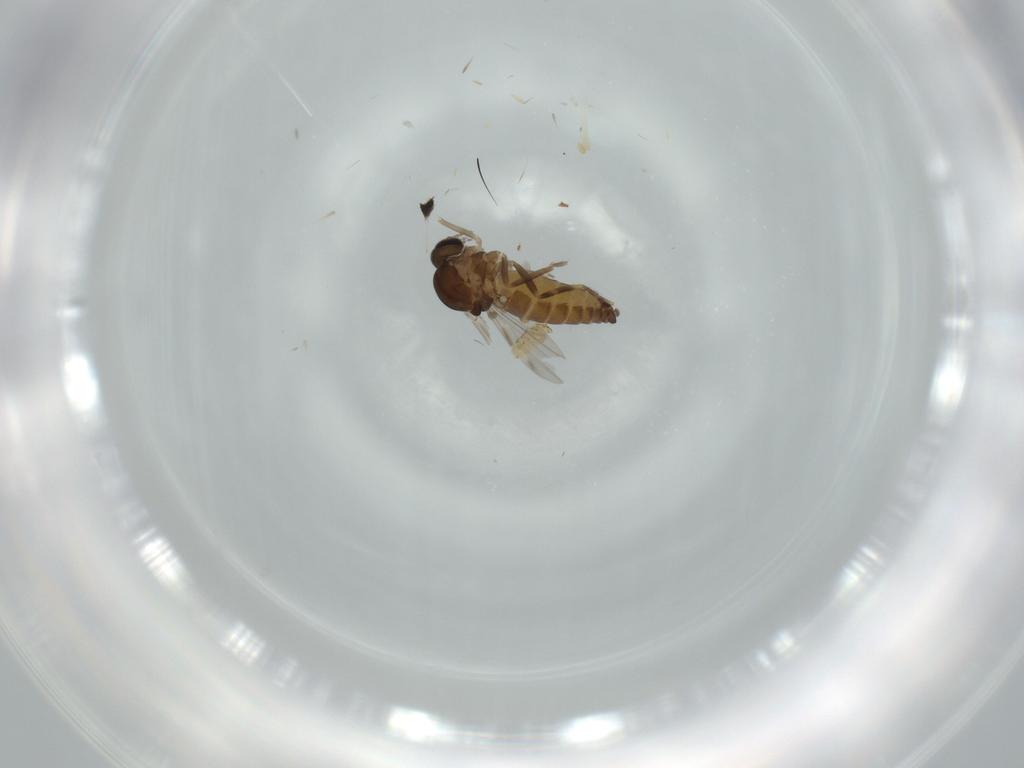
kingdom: Animalia
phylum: Arthropoda
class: Insecta
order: Diptera
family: Ceratopogonidae
